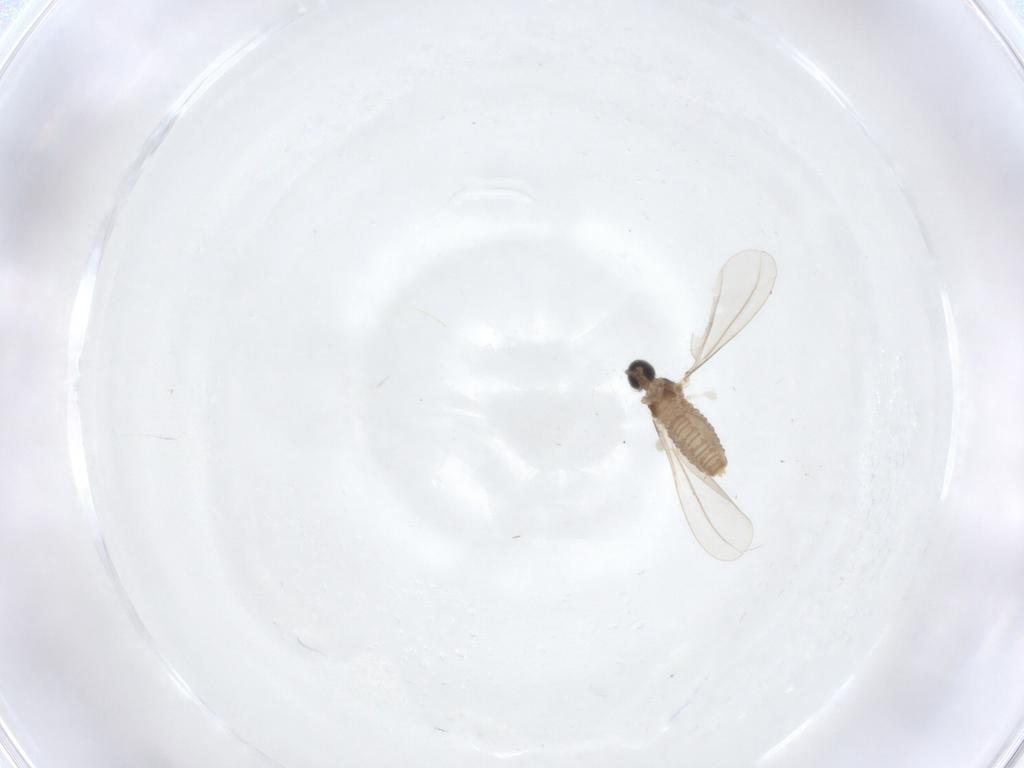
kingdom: Animalia
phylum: Arthropoda
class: Insecta
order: Diptera
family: Cecidomyiidae
